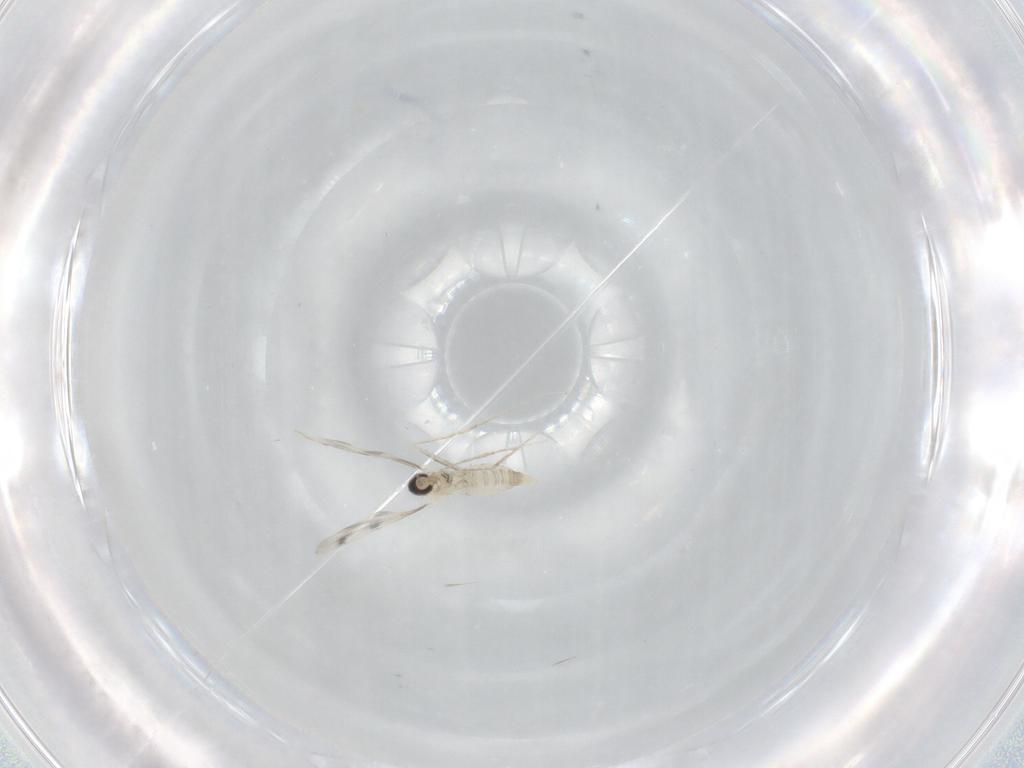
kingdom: Animalia
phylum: Arthropoda
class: Insecta
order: Diptera
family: Cecidomyiidae
